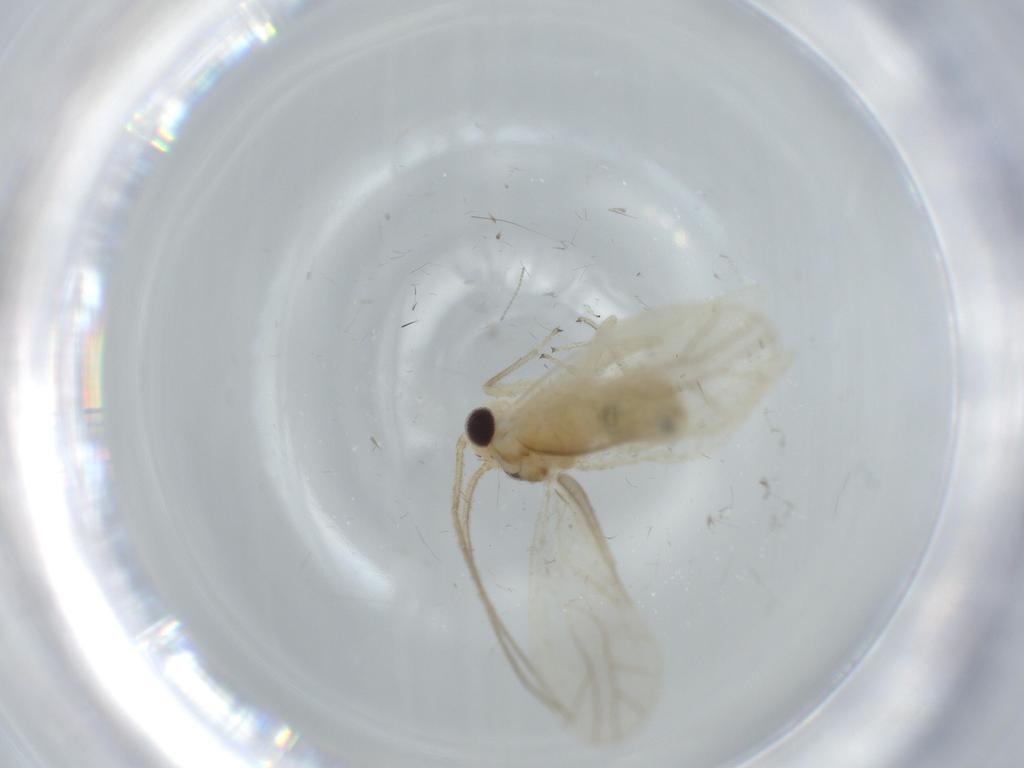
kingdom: Animalia
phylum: Arthropoda
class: Insecta
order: Psocodea
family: Caeciliusidae
